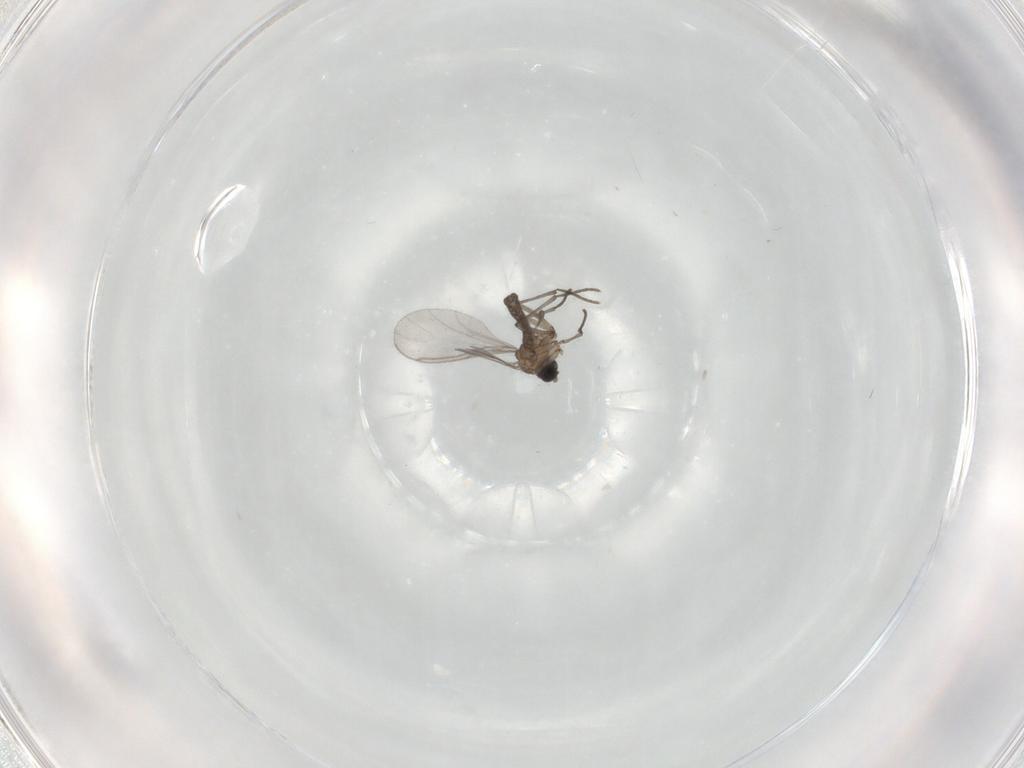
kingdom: Animalia
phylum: Arthropoda
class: Insecta
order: Diptera
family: Sciaridae
